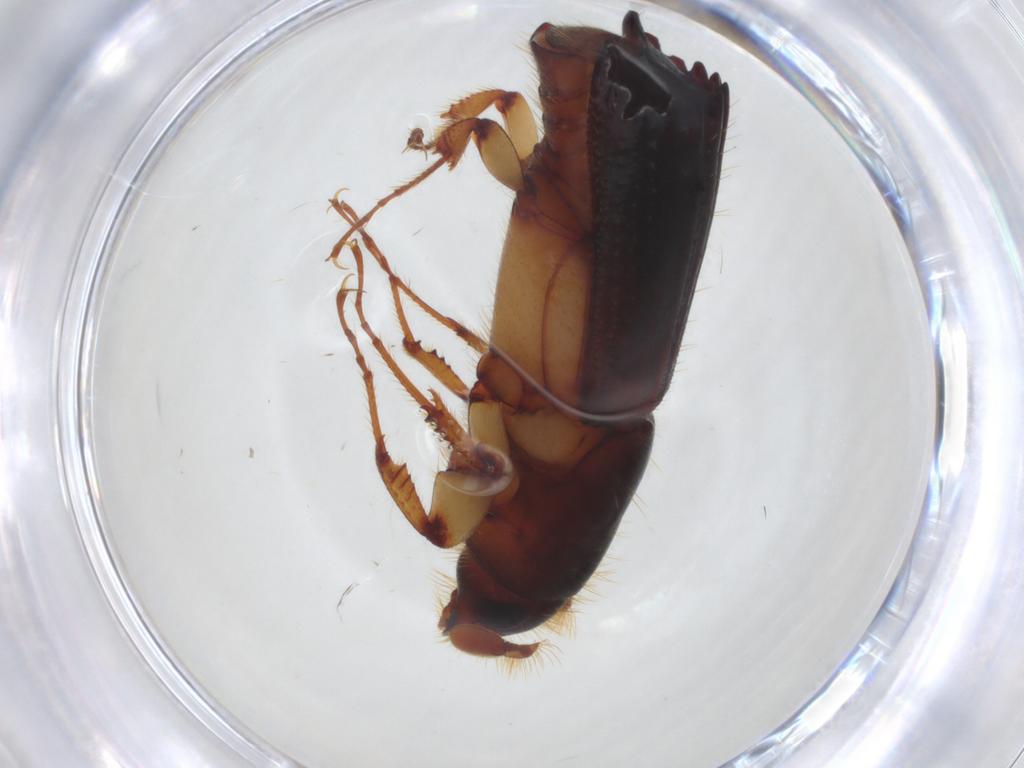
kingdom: Animalia
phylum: Arthropoda
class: Insecta
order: Coleoptera
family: Curculionidae
